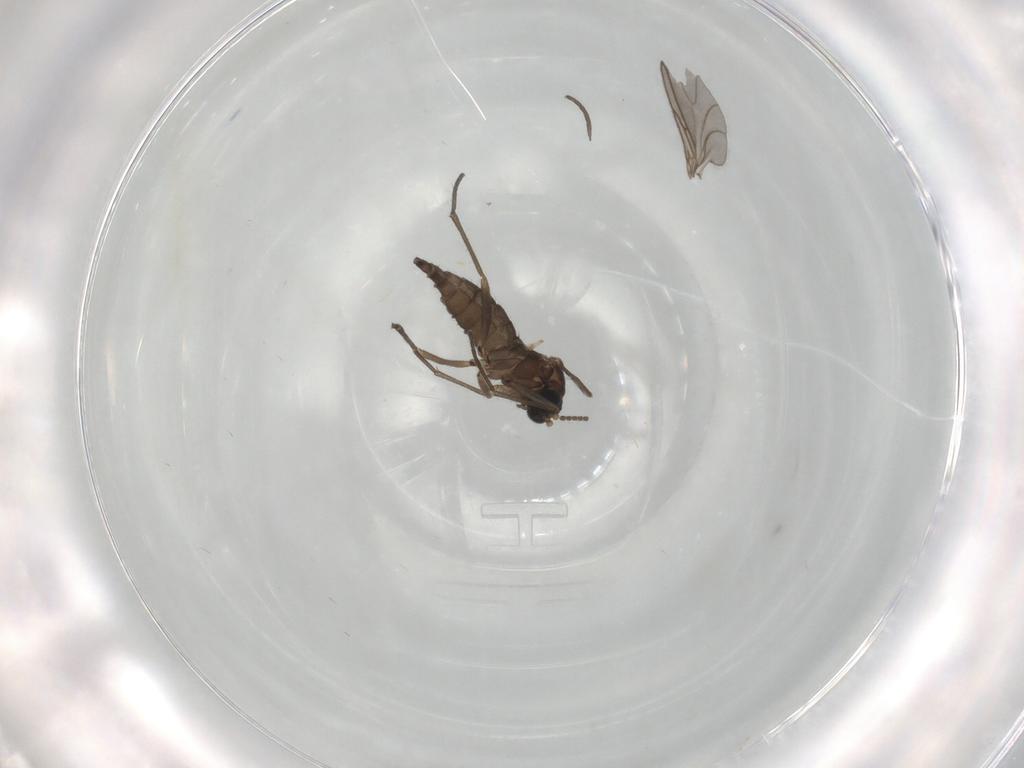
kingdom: Animalia
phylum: Arthropoda
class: Insecta
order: Diptera
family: Sciaridae
